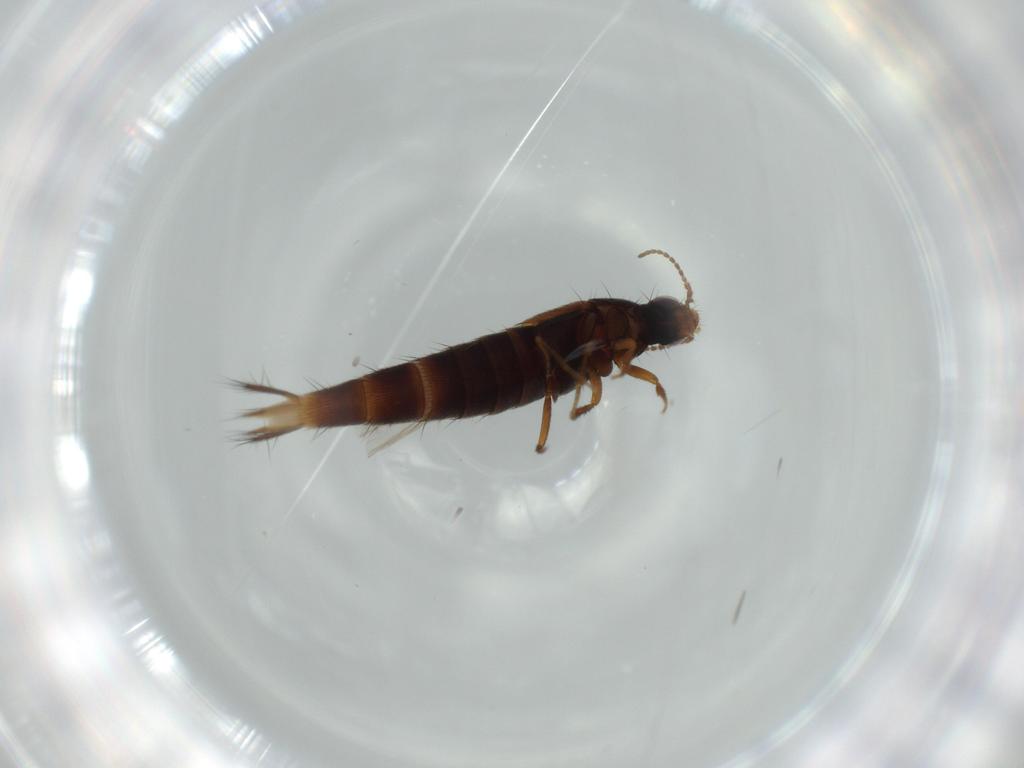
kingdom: Animalia
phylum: Arthropoda
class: Insecta
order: Coleoptera
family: Staphylinidae
